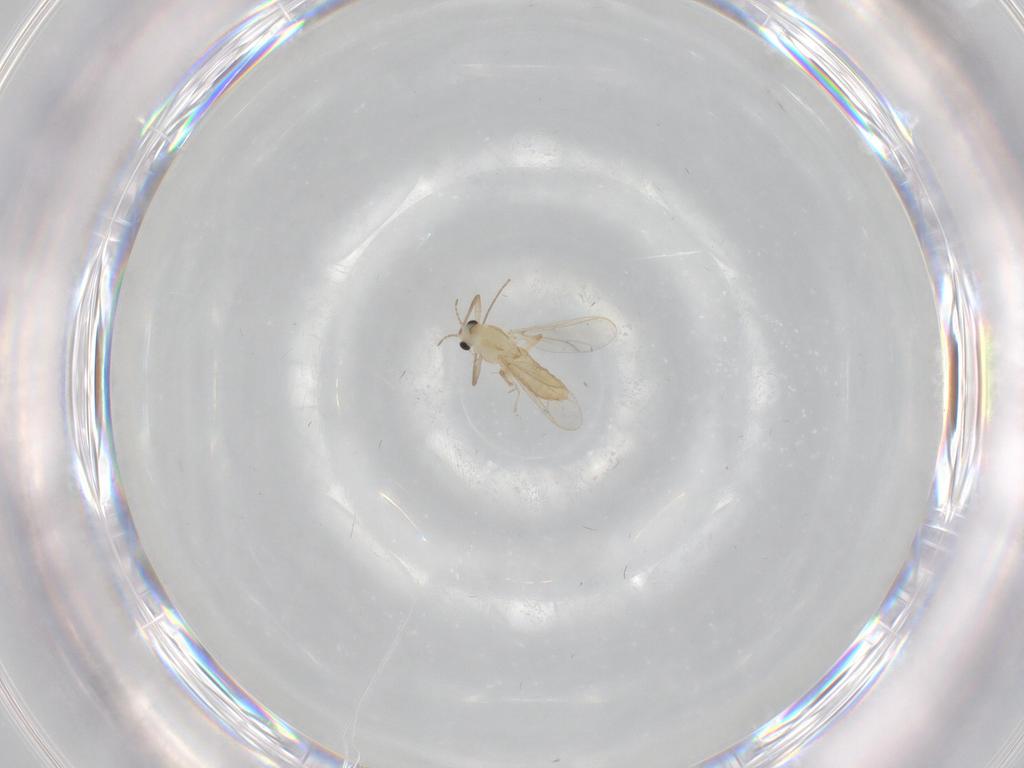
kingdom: Animalia
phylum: Arthropoda
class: Insecta
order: Diptera
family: Chironomidae
